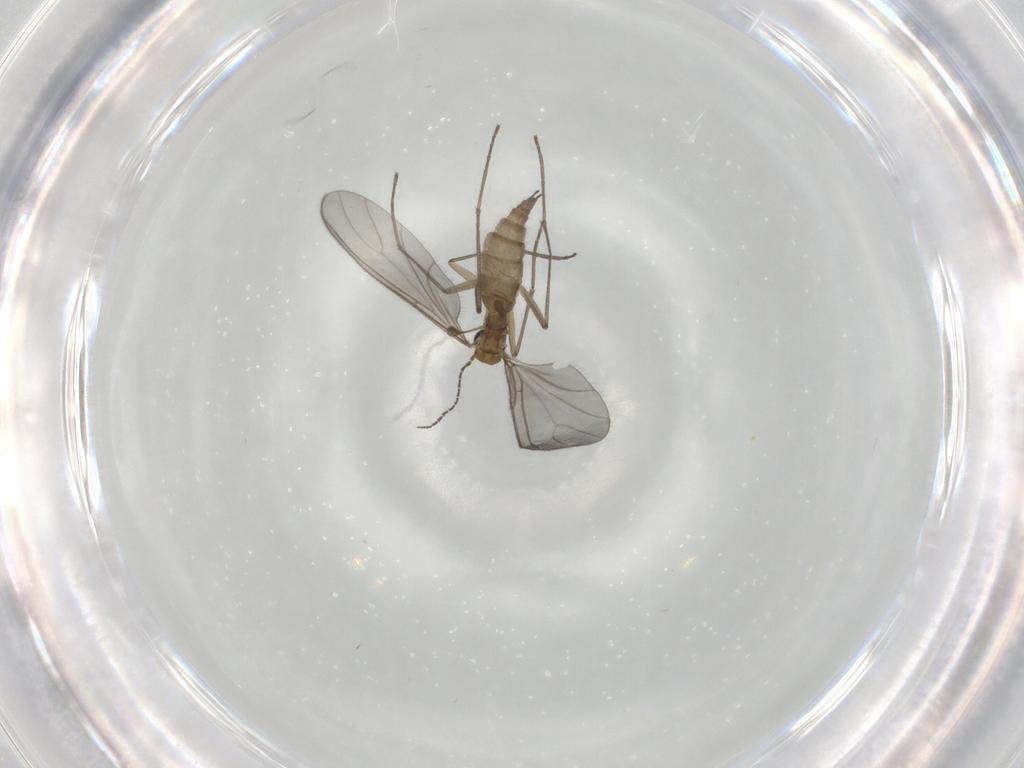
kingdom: Animalia
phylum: Arthropoda
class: Insecta
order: Diptera
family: Sciaridae
